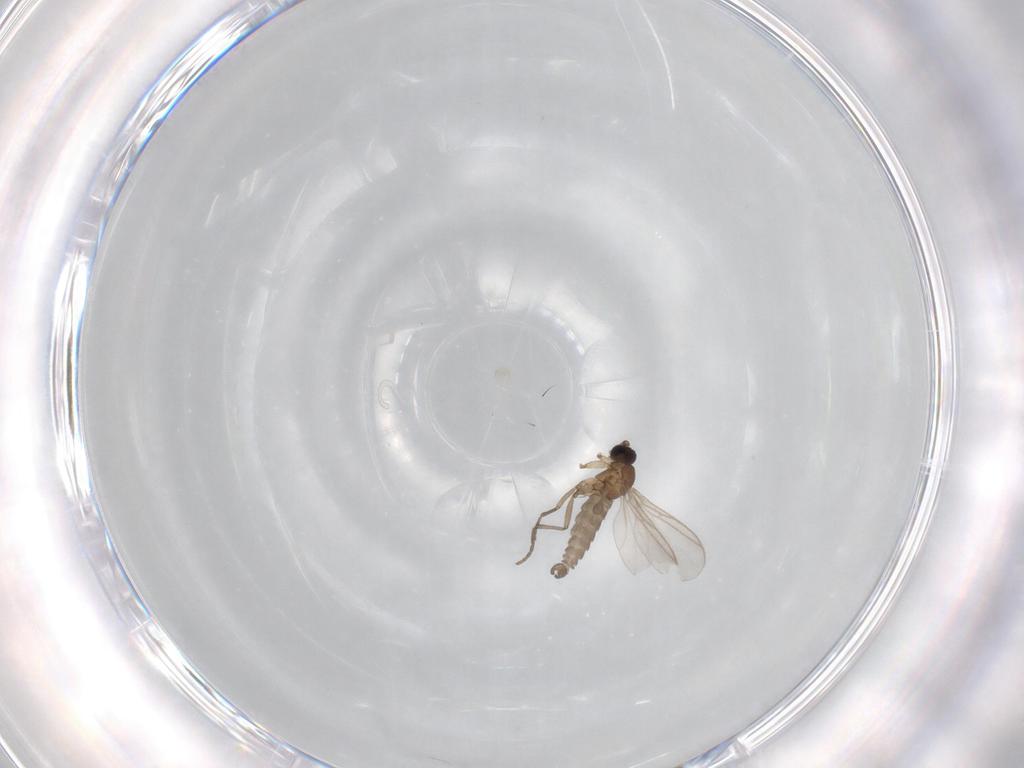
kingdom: Animalia
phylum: Arthropoda
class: Insecta
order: Diptera
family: Hybotidae
